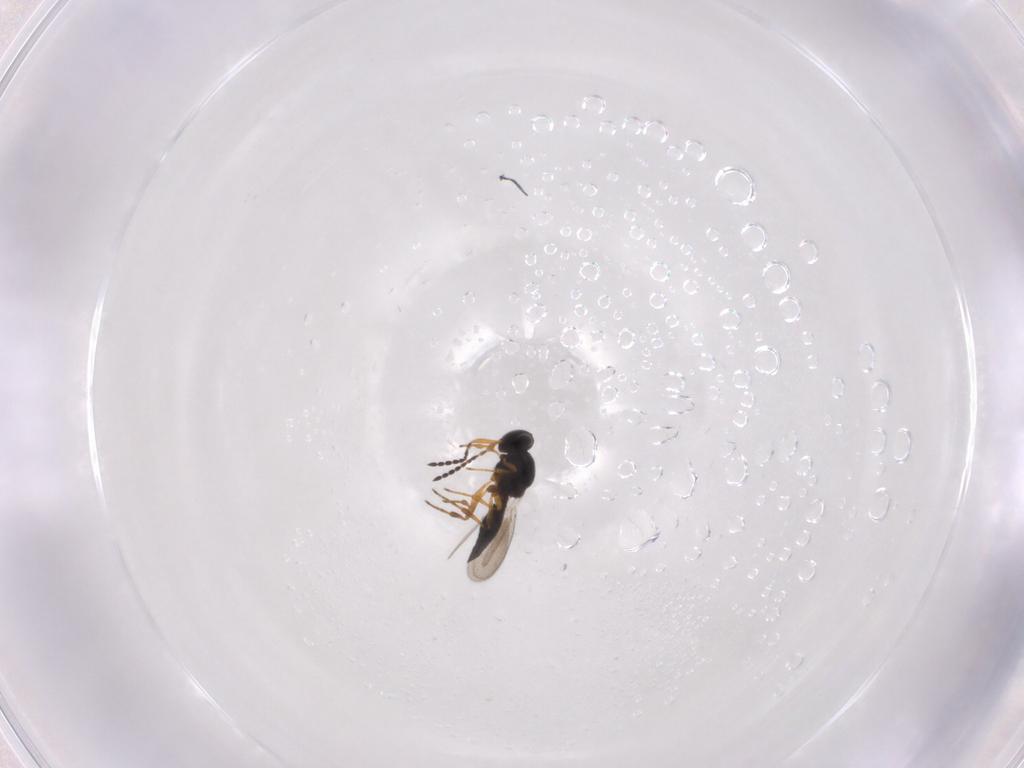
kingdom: Animalia
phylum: Arthropoda
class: Insecta
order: Hymenoptera
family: Platygastridae
